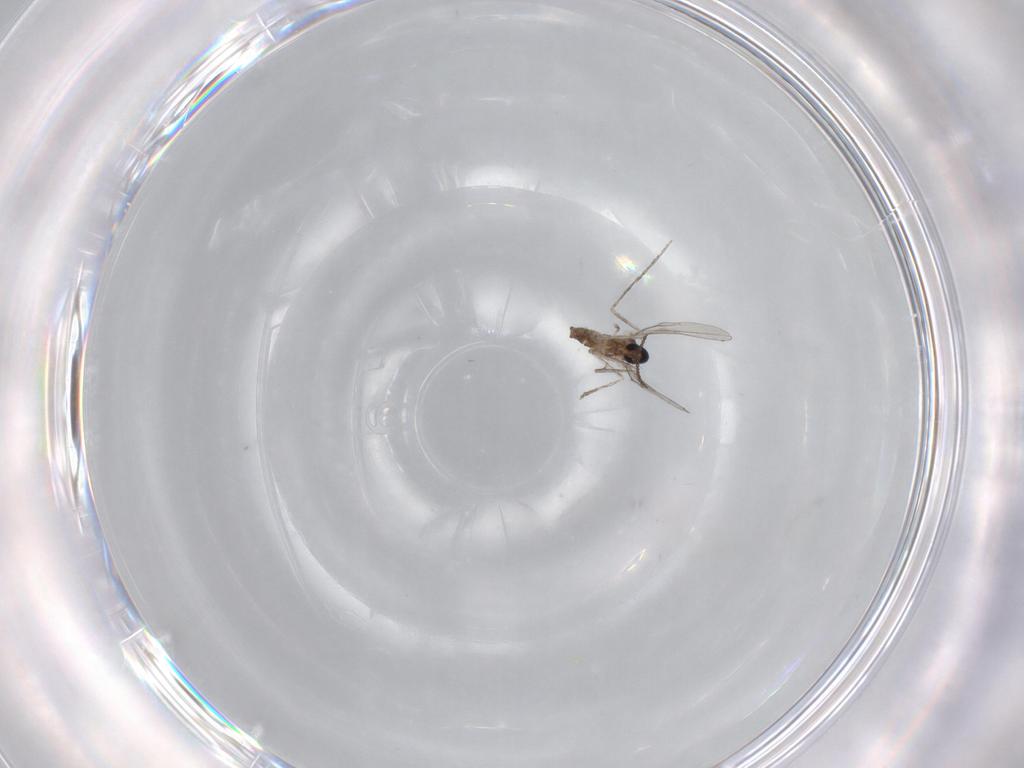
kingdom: Animalia
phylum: Arthropoda
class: Insecta
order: Diptera
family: Cecidomyiidae
